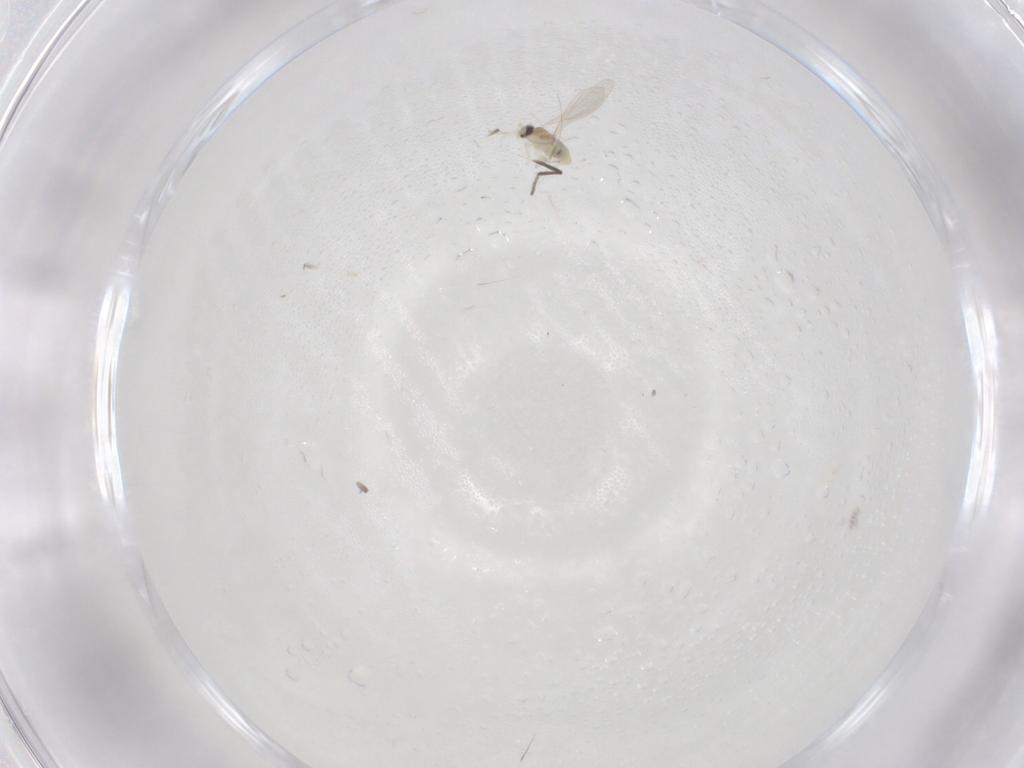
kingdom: Animalia
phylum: Arthropoda
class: Insecta
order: Diptera
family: Cecidomyiidae
